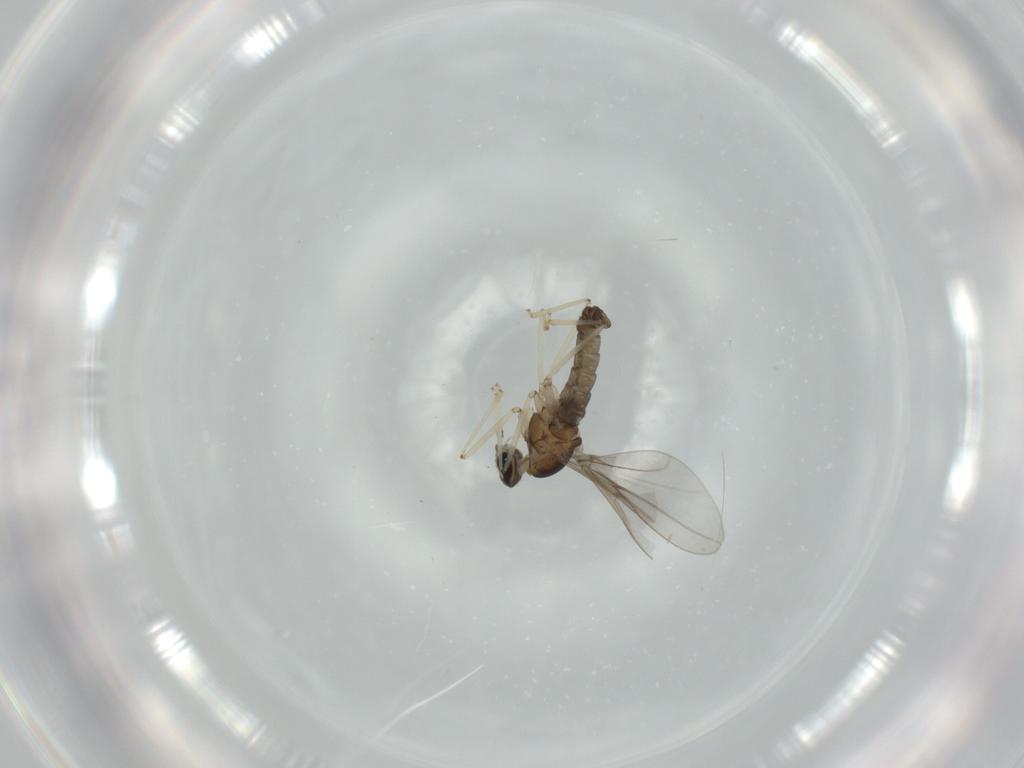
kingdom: Animalia
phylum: Arthropoda
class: Insecta
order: Diptera
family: Cecidomyiidae
